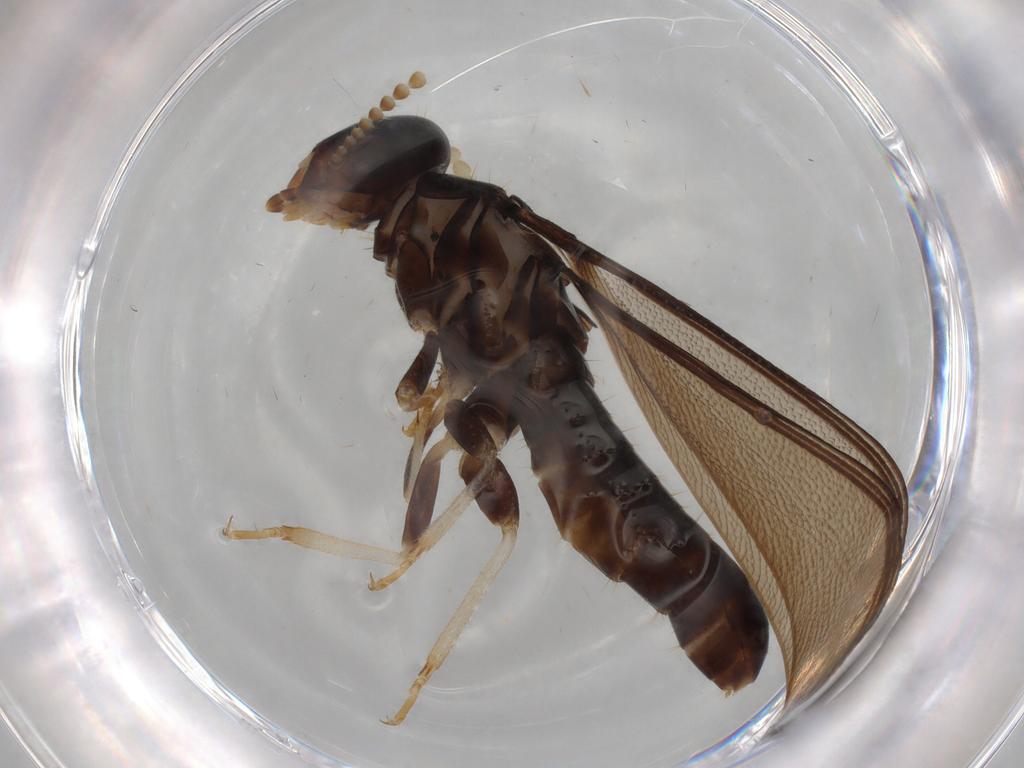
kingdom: Animalia
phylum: Arthropoda
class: Insecta
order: Blattodea
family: Kalotermitidae
